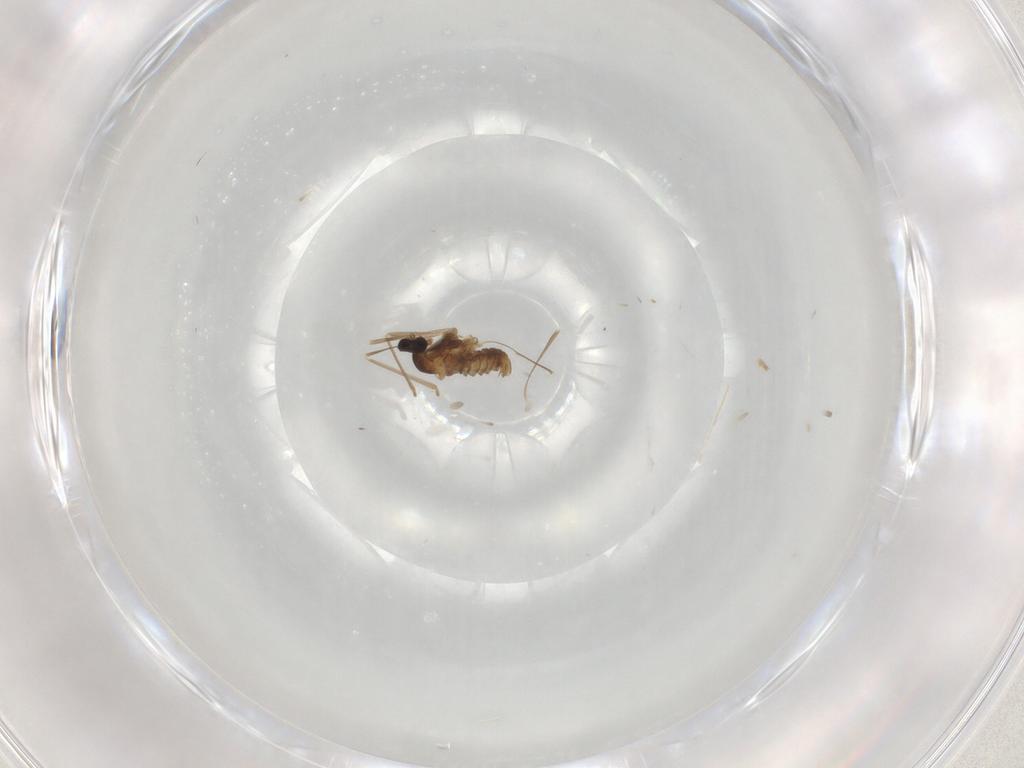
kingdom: Animalia
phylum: Arthropoda
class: Insecta
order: Diptera
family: Cecidomyiidae
